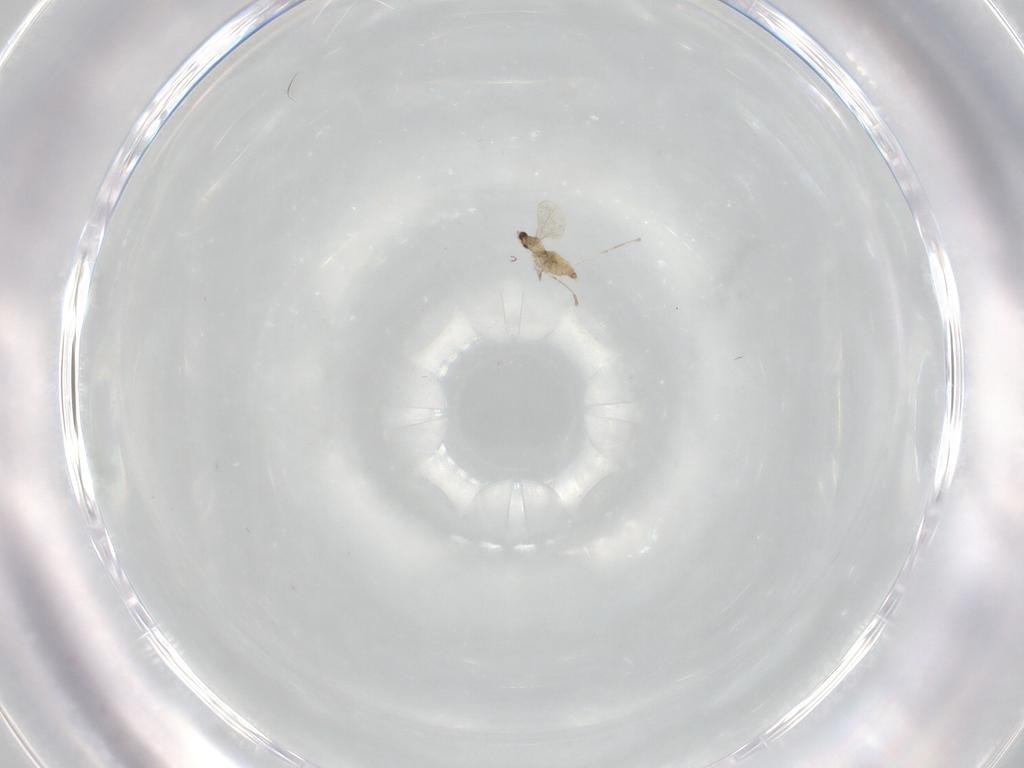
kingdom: Animalia
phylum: Arthropoda
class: Insecta
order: Diptera
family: Cecidomyiidae
